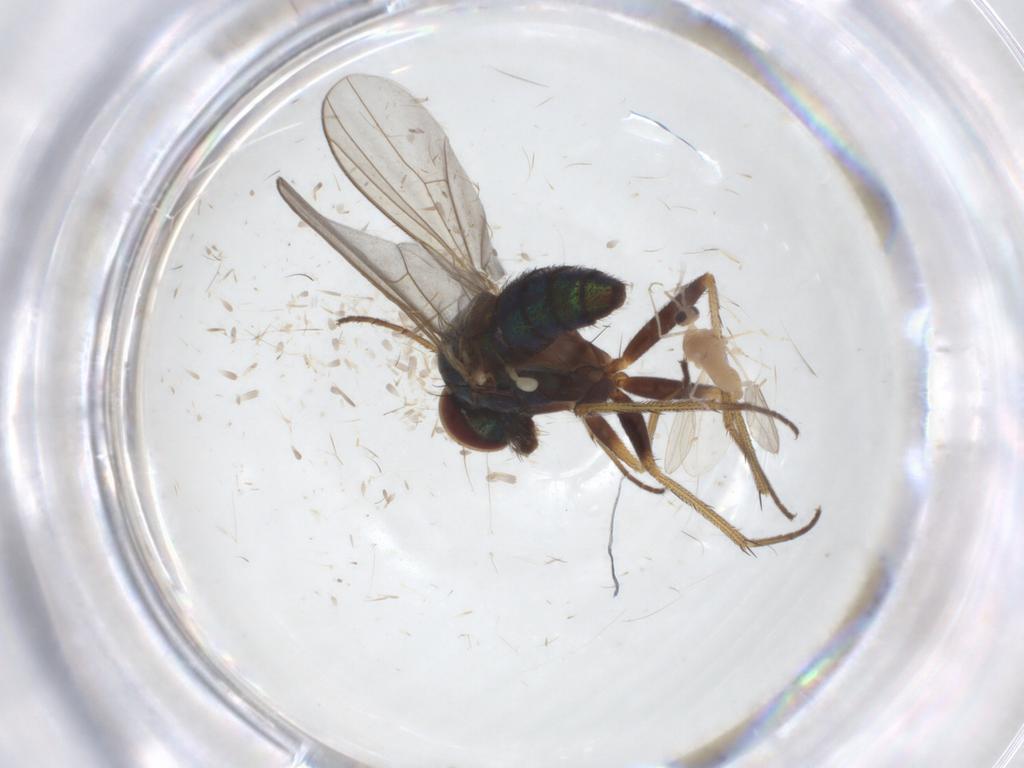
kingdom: Animalia
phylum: Arthropoda
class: Insecta
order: Diptera
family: Dolichopodidae
